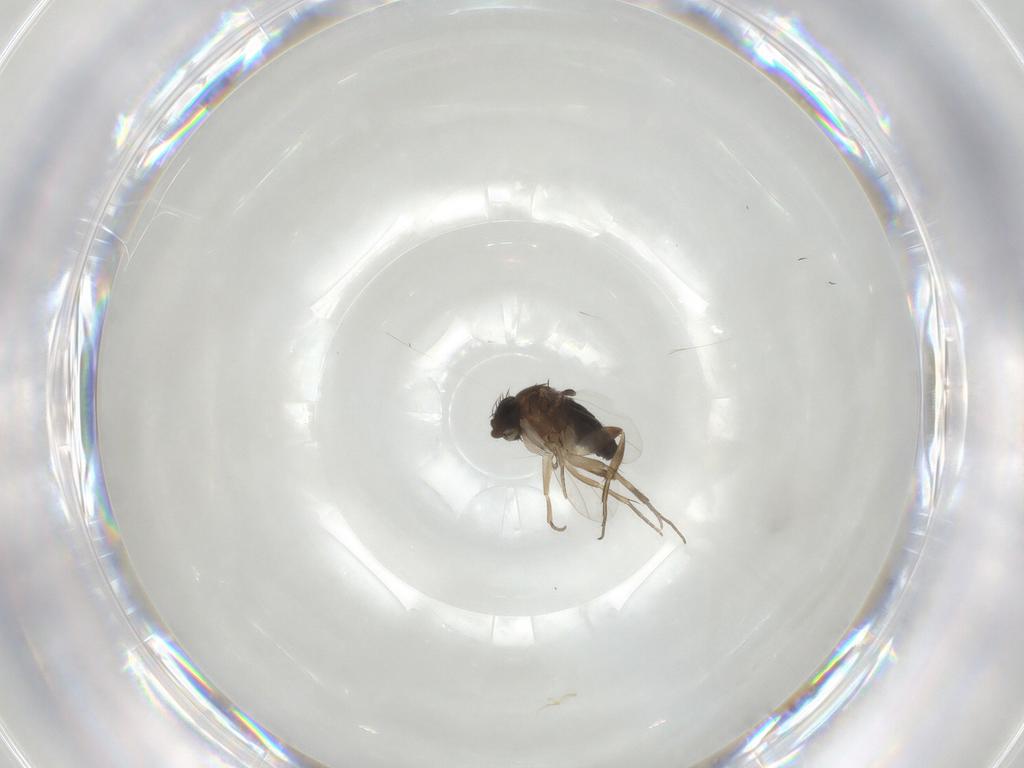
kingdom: Animalia
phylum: Arthropoda
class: Insecta
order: Diptera
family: Phoridae
